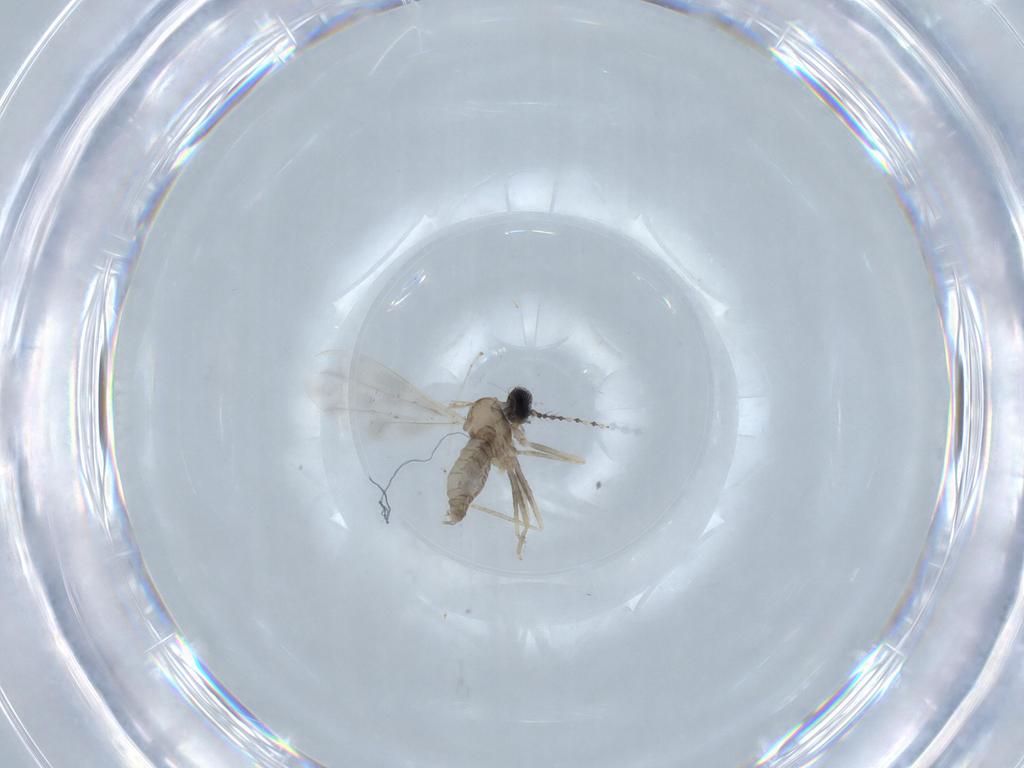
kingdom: Animalia
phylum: Arthropoda
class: Insecta
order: Diptera
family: Cecidomyiidae
